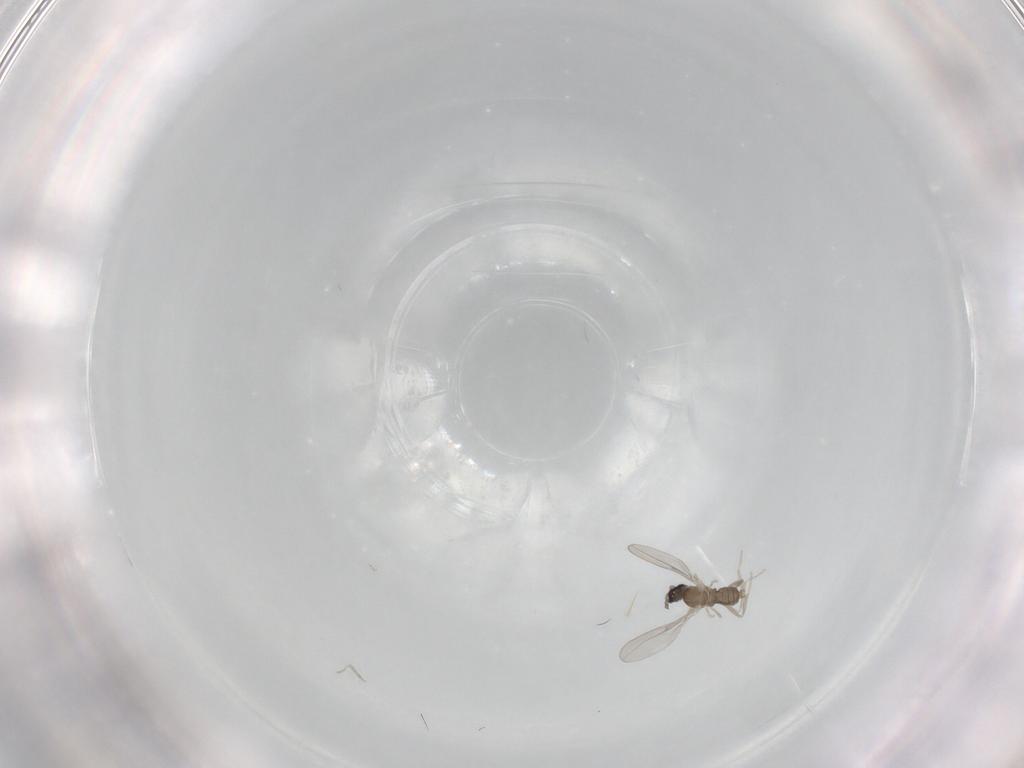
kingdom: Animalia
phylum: Arthropoda
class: Insecta
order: Diptera
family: Cecidomyiidae
